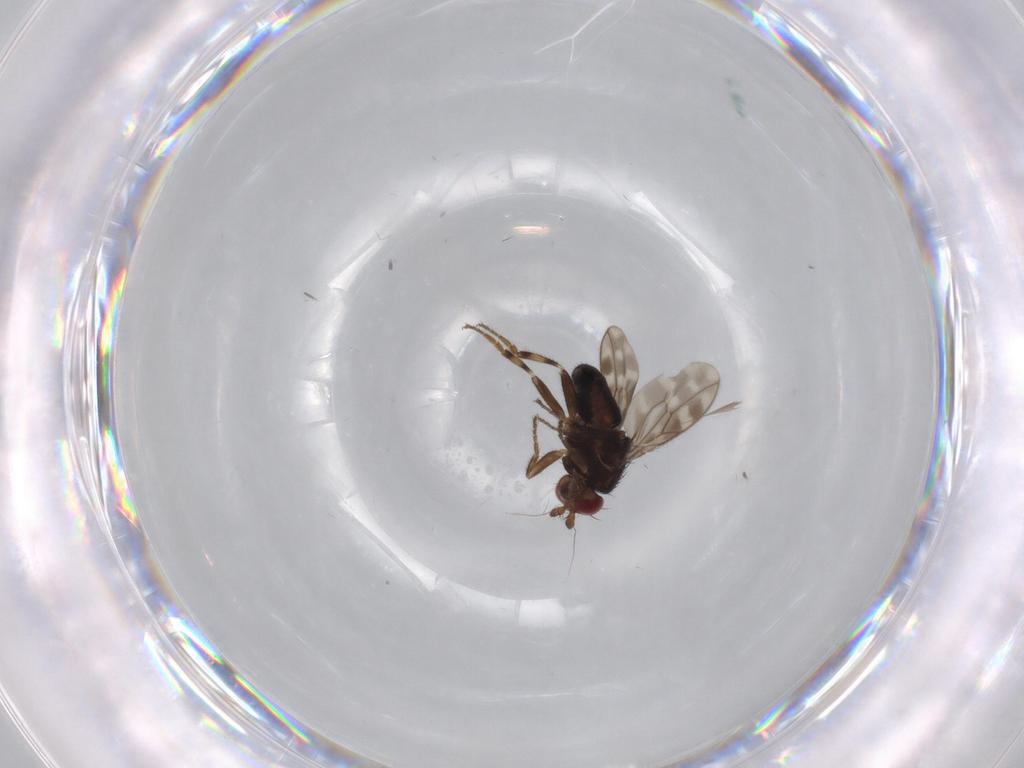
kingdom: Animalia
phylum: Arthropoda
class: Insecta
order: Diptera
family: Sphaeroceridae
